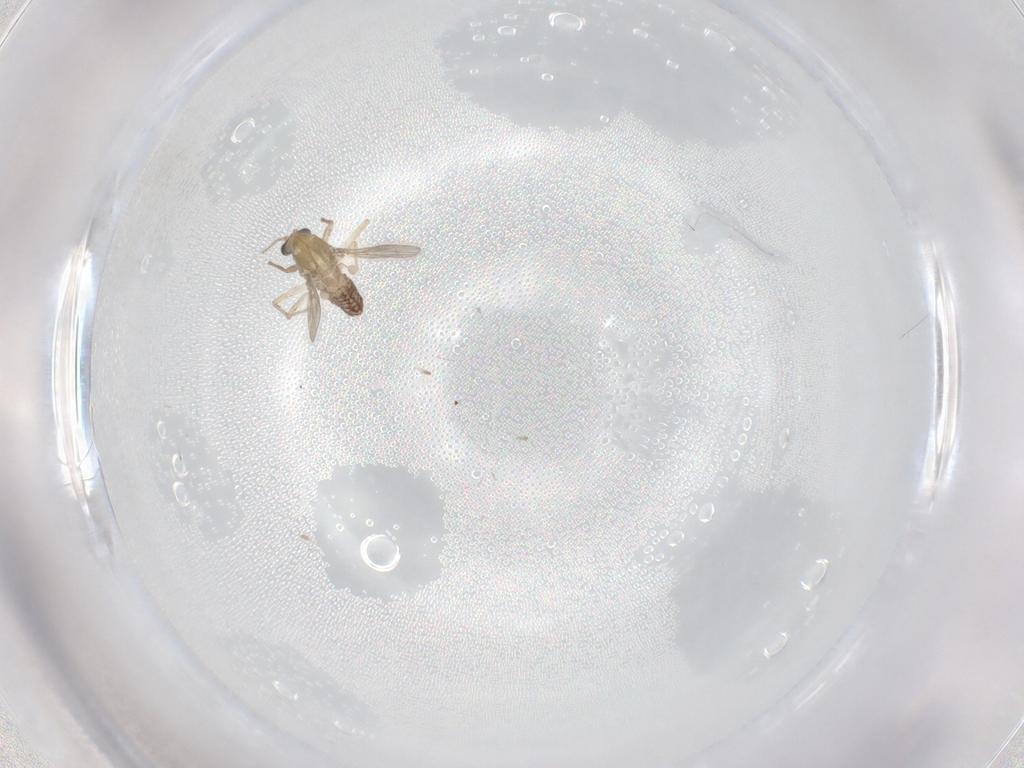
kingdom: Animalia
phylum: Arthropoda
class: Insecta
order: Diptera
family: Chironomidae
